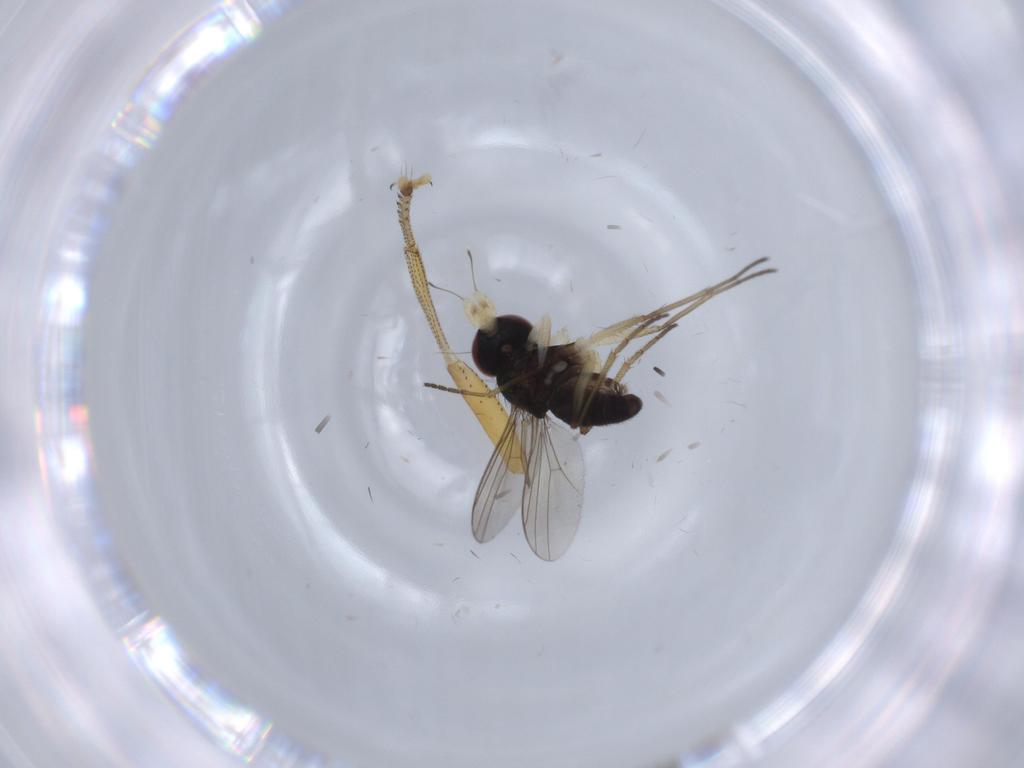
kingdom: Animalia
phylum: Arthropoda
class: Insecta
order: Diptera
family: Dolichopodidae
